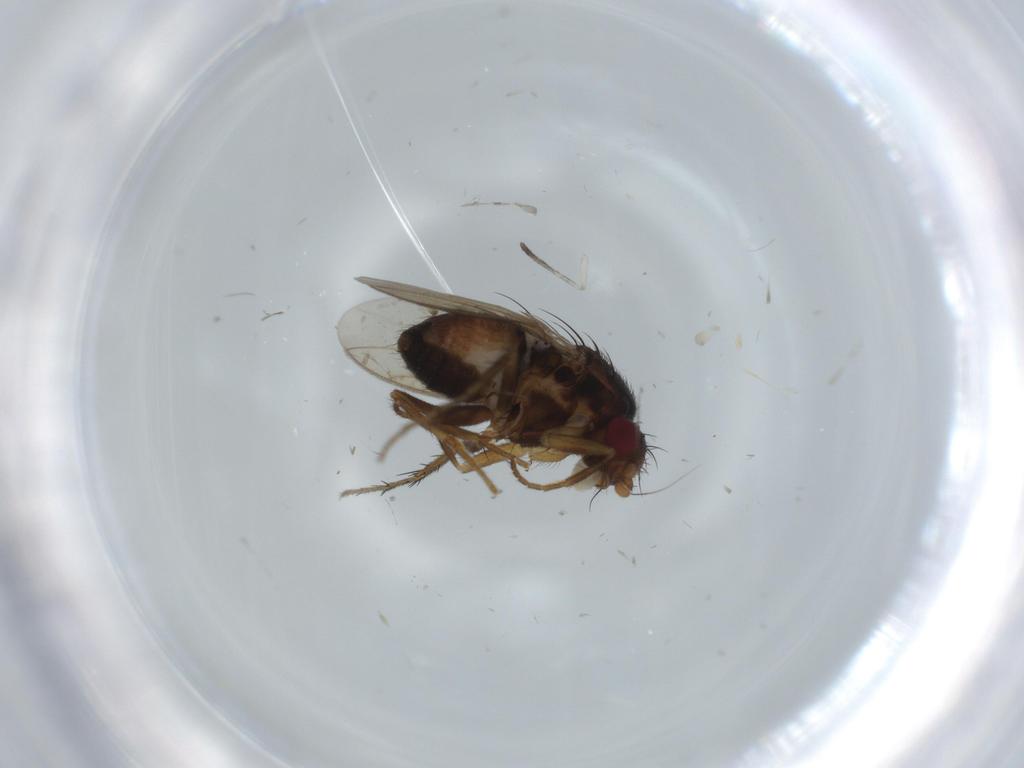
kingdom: Animalia
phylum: Arthropoda
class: Insecta
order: Diptera
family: Sphaeroceridae
